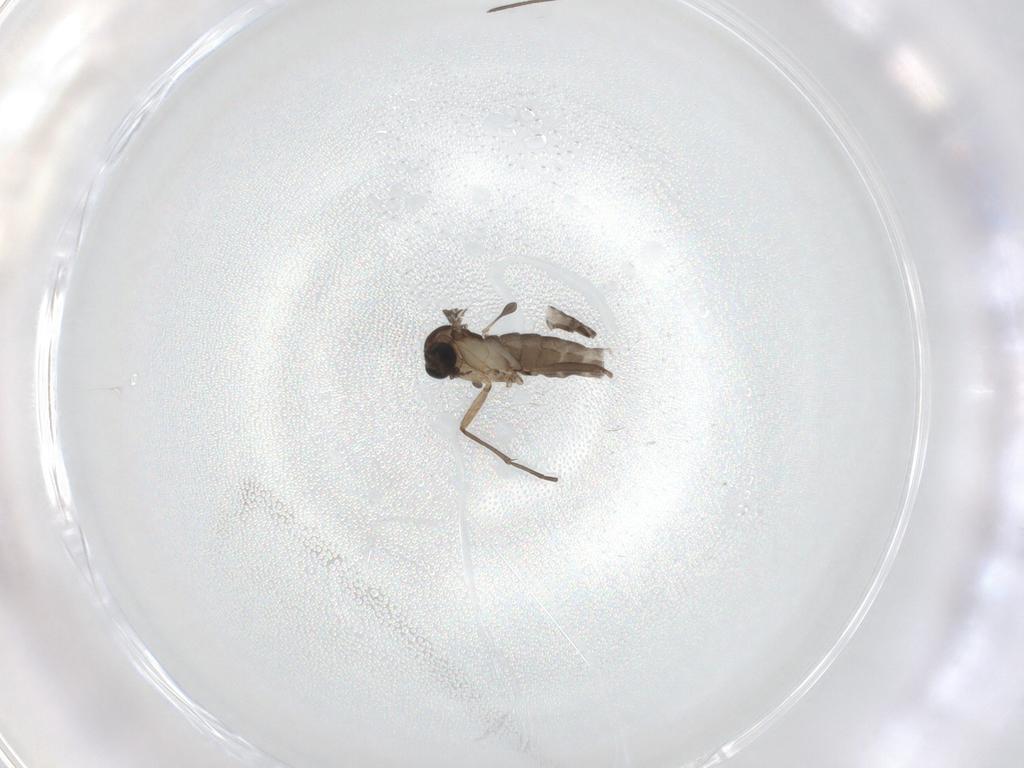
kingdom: Animalia
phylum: Arthropoda
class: Insecta
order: Diptera
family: Sciaridae
